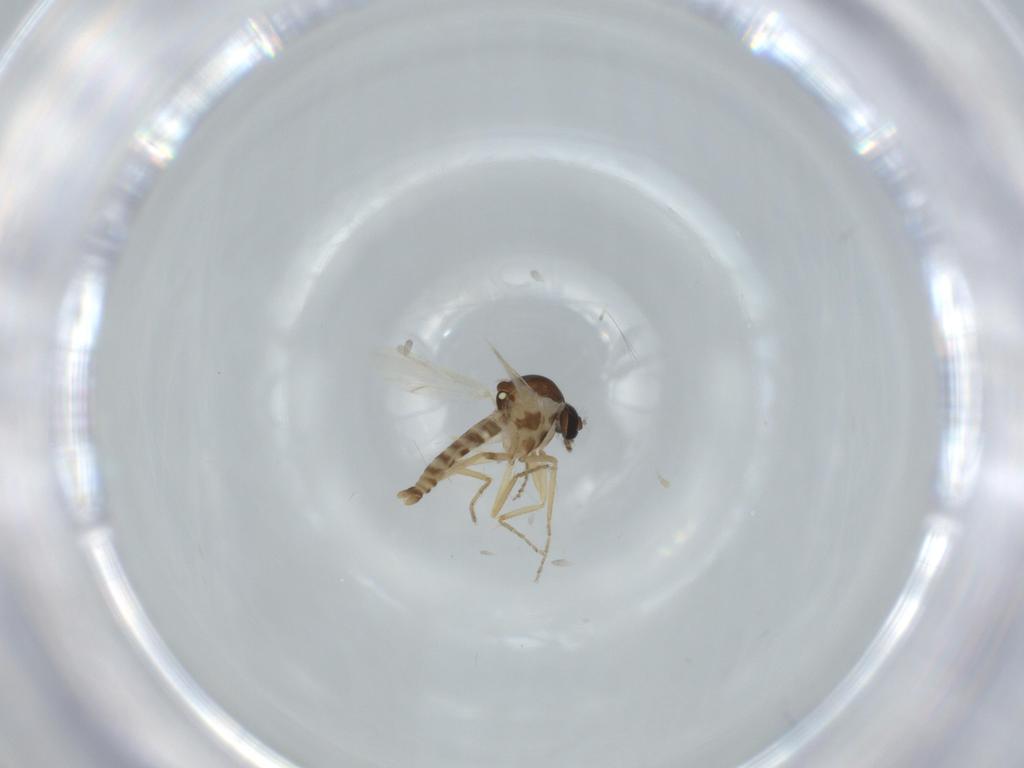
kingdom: Animalia
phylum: Arthropoda
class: Insecta
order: Diptera
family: Ceratopogonidae
